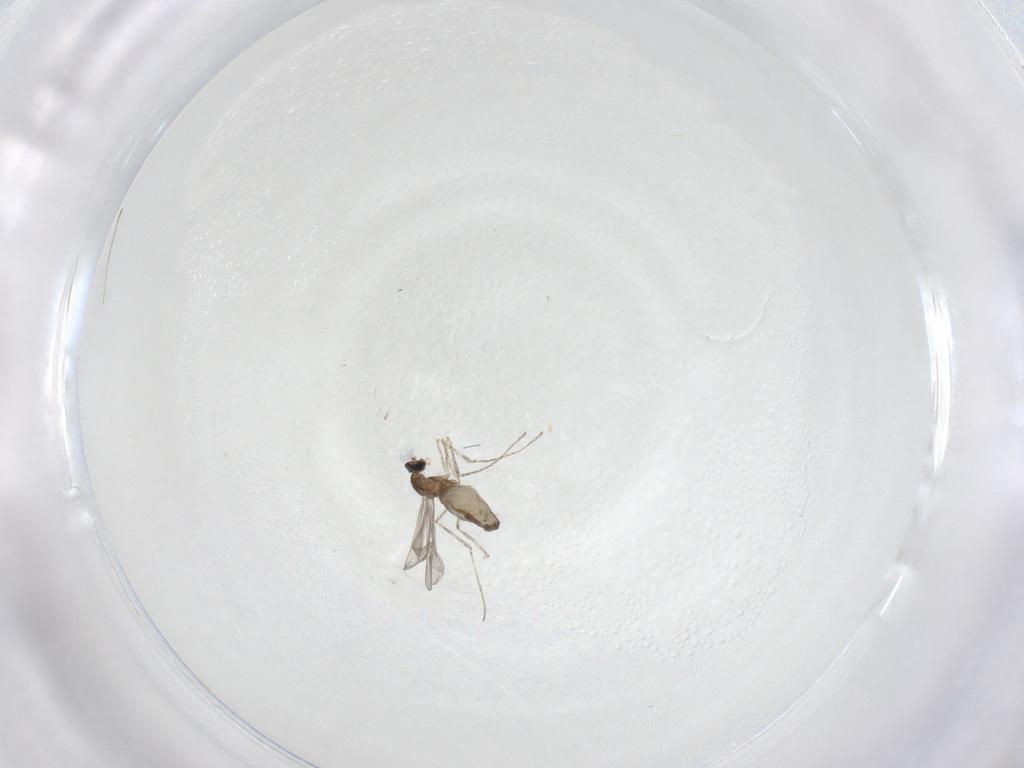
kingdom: Animalia
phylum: Arthropoda
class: Insecta
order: Diptera
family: Cecidomyiidae
